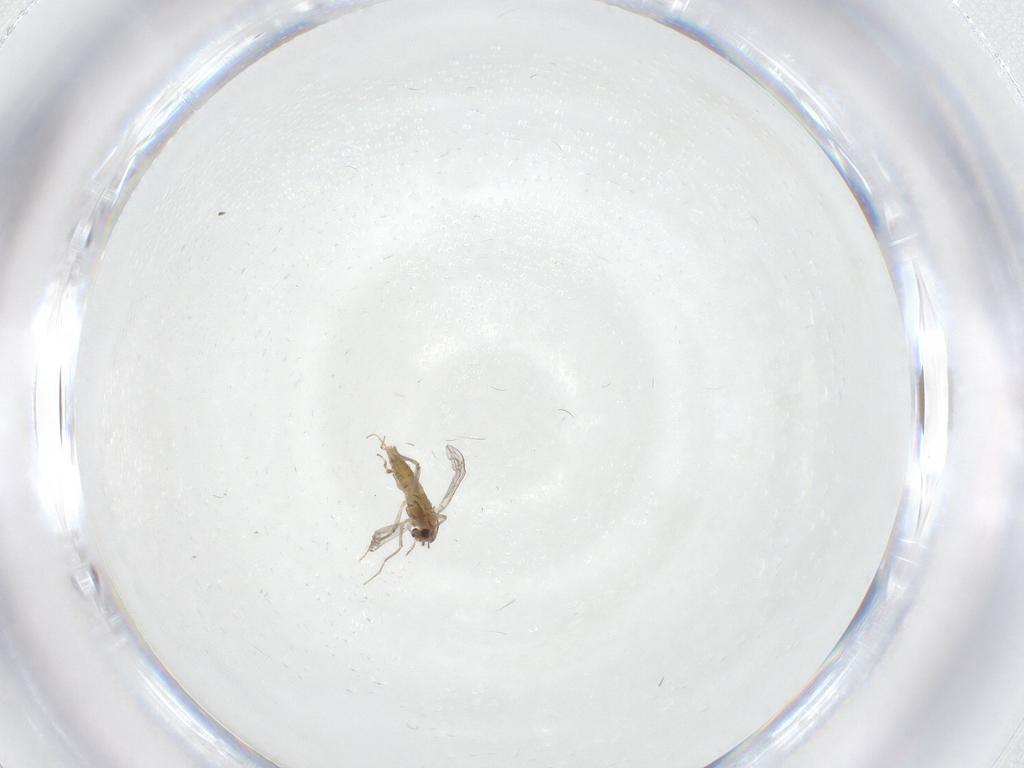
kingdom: Animalia
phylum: Arthropoda
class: Insecta
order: Diptera
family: Chironomidae
